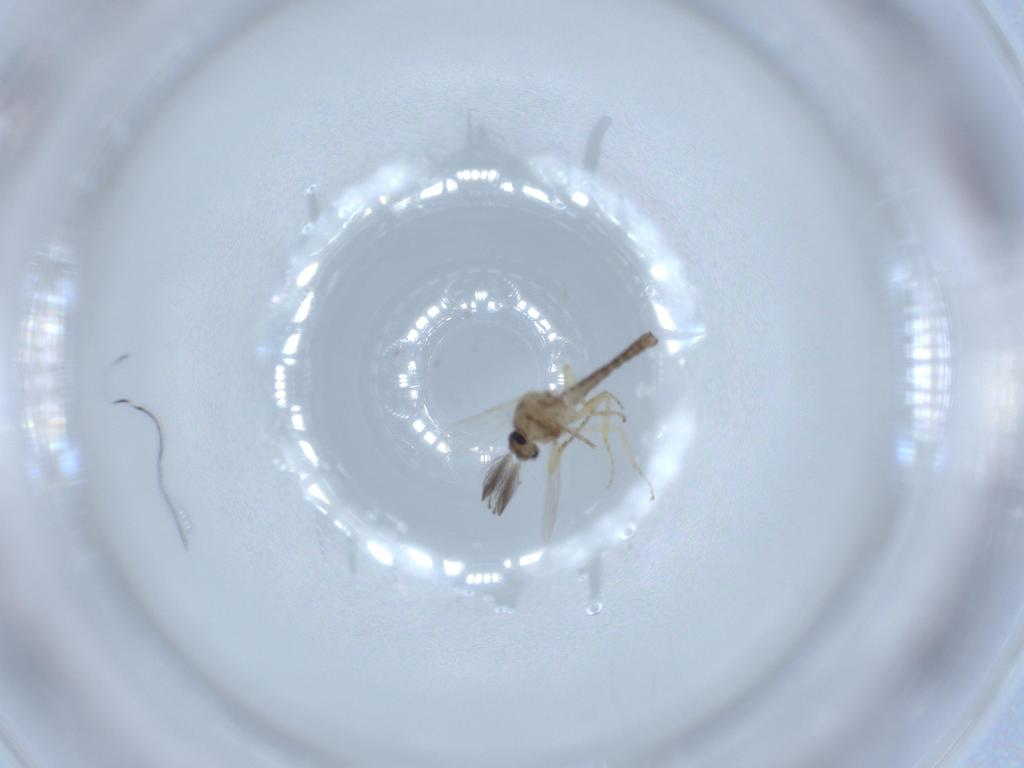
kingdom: Animalia
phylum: Arthropoda
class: Insecta
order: Diptera
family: Ceratopogonidae
